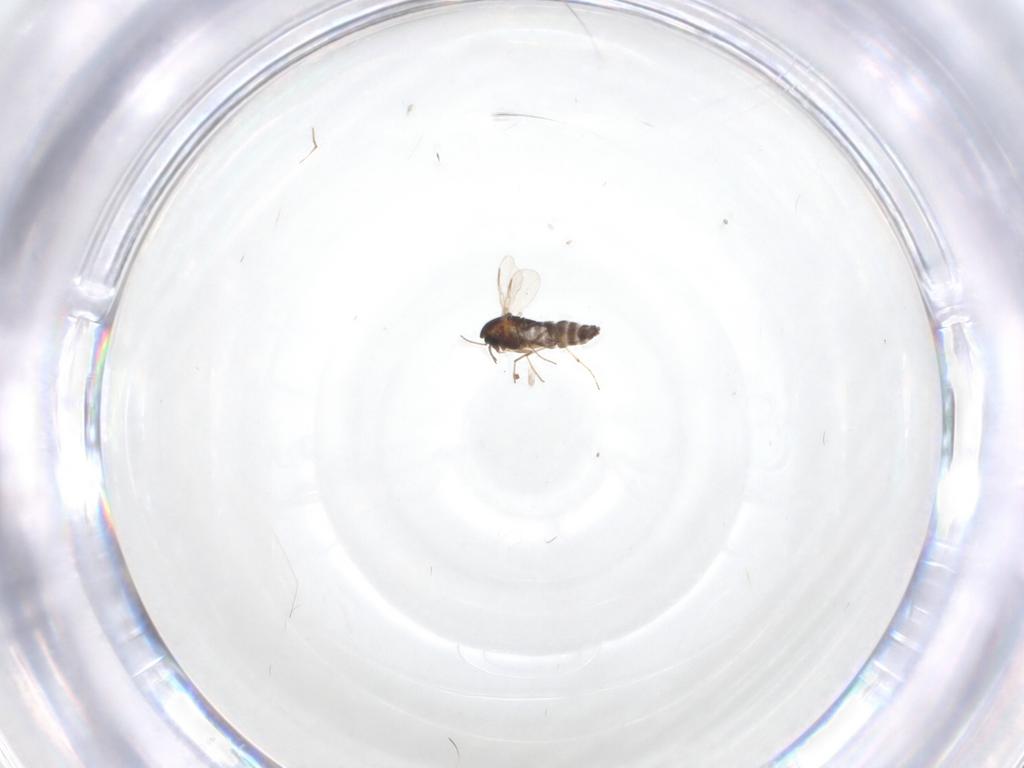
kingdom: Animalia
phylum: Arthropoda
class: Insecta
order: Diptera
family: Chironomidae
